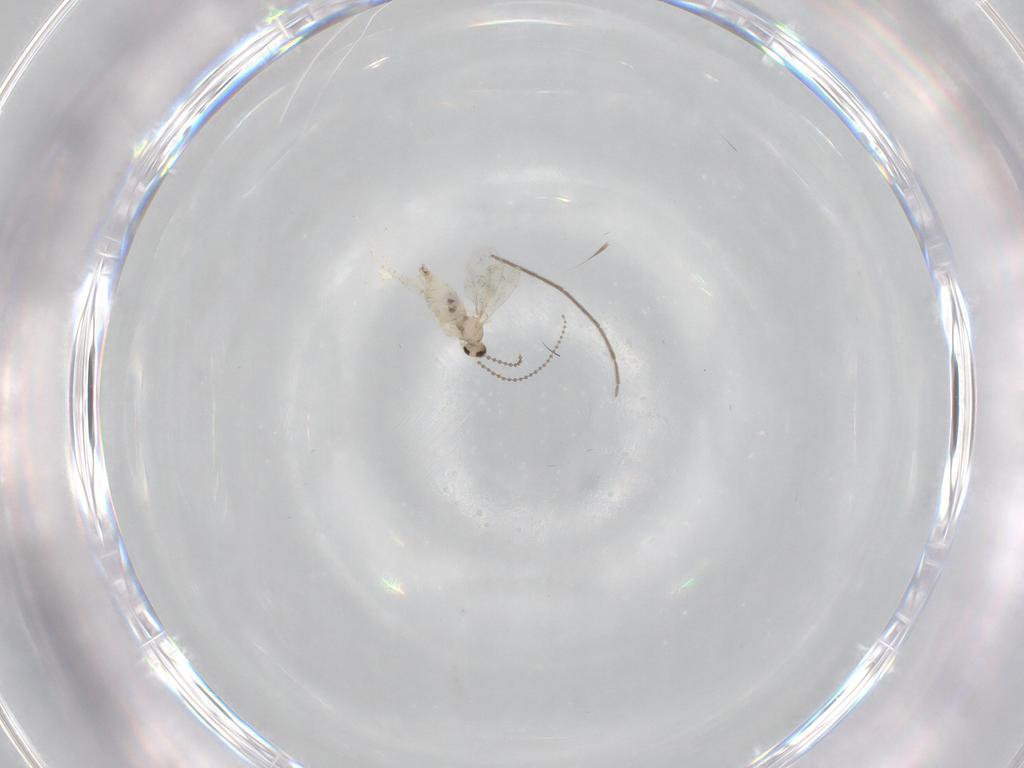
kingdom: Animalia
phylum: Arthropoda
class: Insecta
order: Diptera
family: Chironomidae
